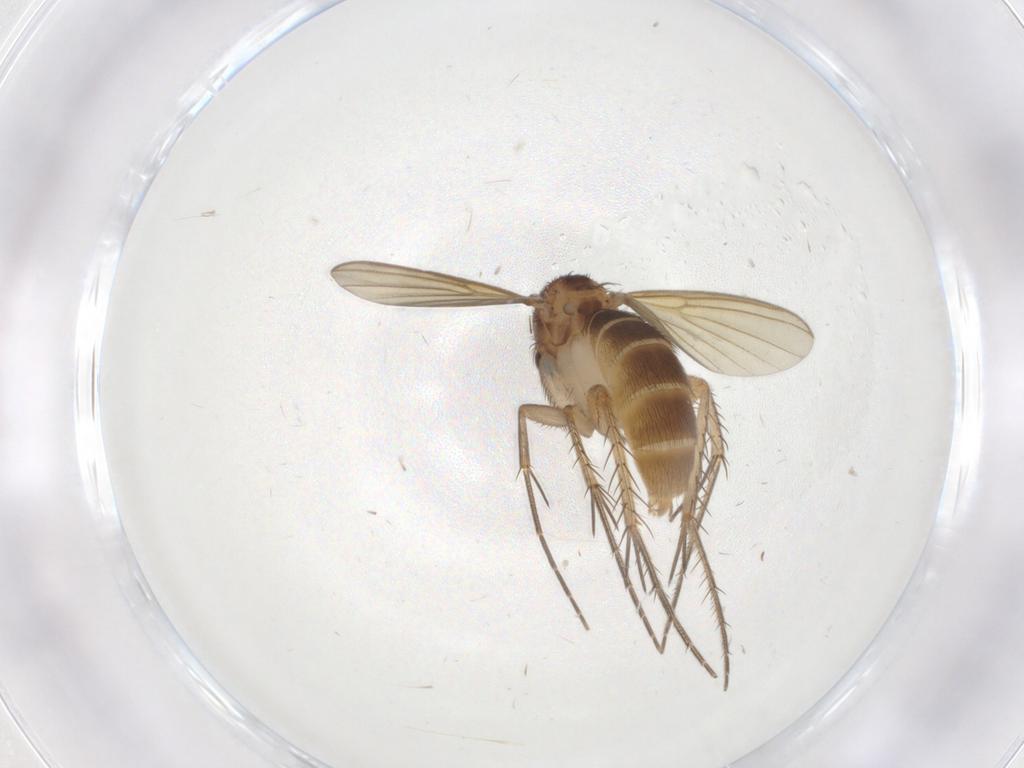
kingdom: Animalia
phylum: Arthropoda
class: Insecta
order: Diptera
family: Mycetophilidae
